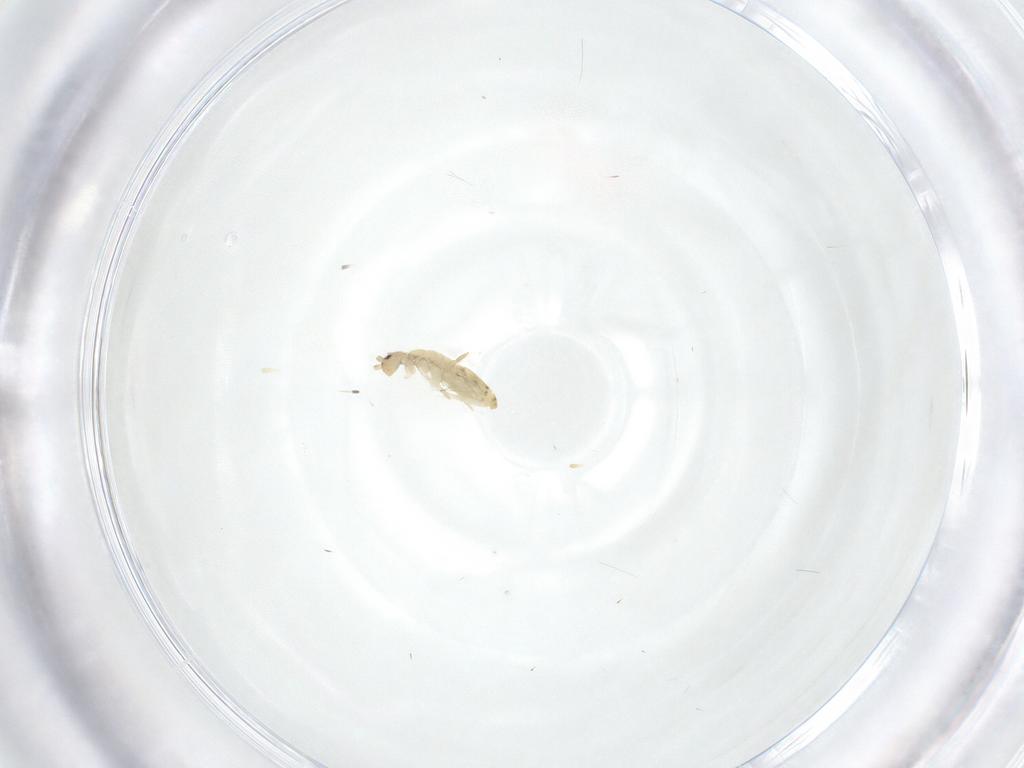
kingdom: Animalia
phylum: Arthropoda
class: Collembola
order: Entomobryomorpha
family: Entomobryidae
